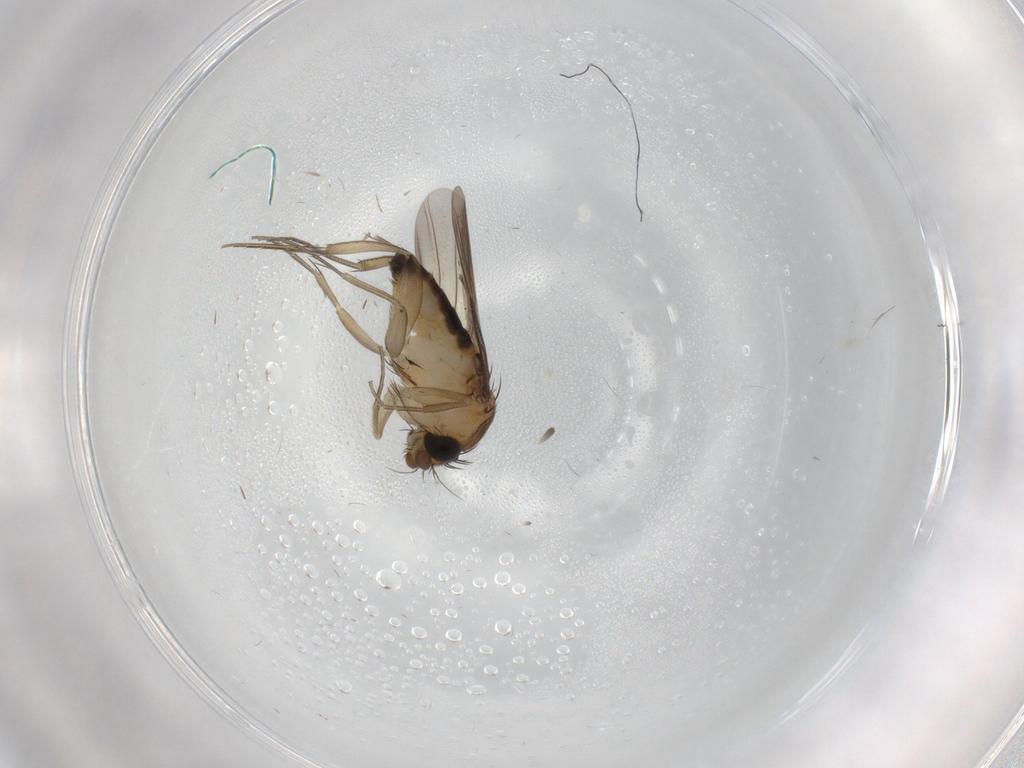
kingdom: Animalia
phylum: Arthropoda
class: Insecta
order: Diptera
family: Phoridae
